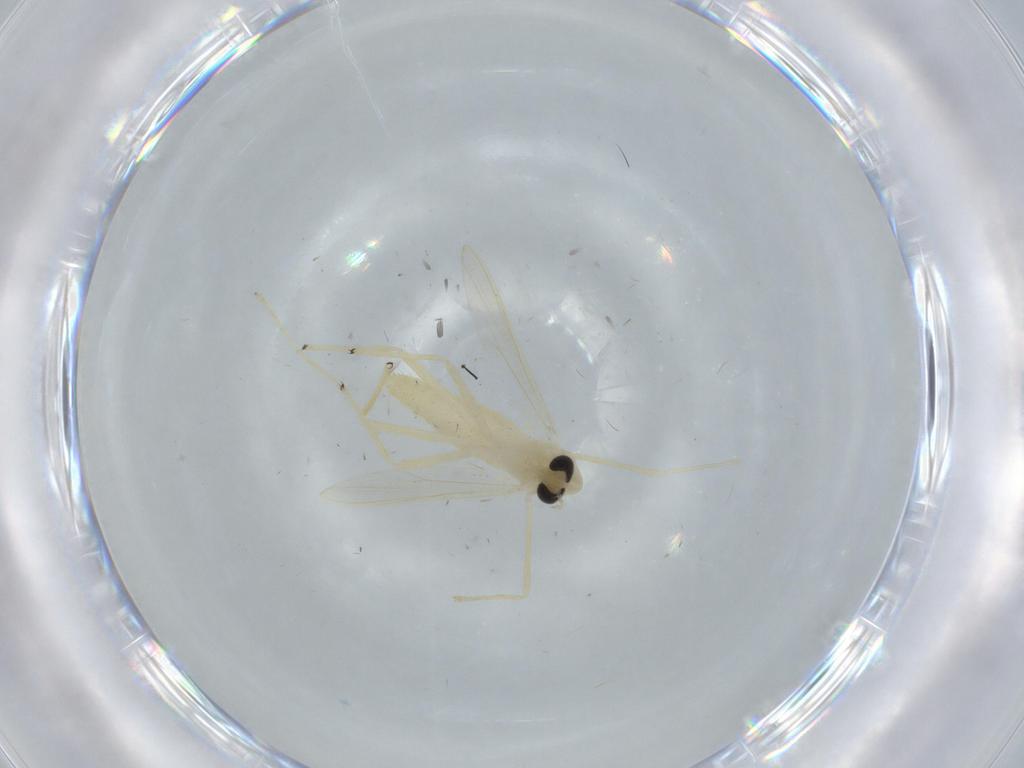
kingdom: Animalia
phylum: Arthropoda
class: Insecta
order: Diptera
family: Chironomidae
